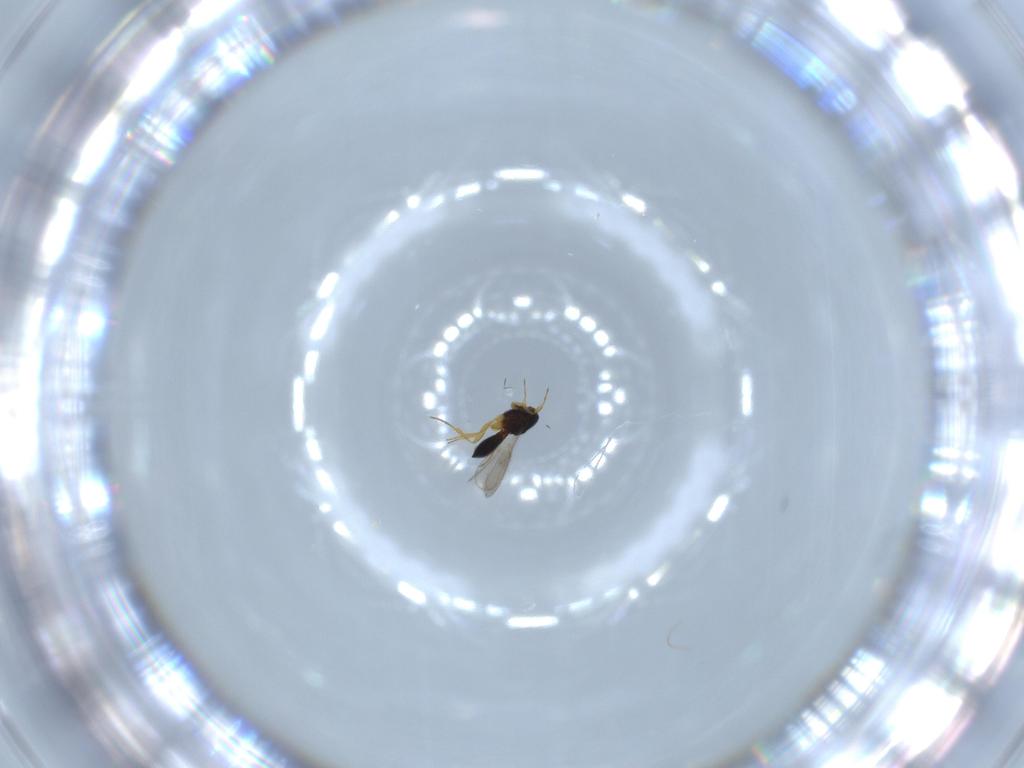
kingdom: Animalia
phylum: Arthropoda
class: Insecta
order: Hymenoptera
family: Scelionidae
